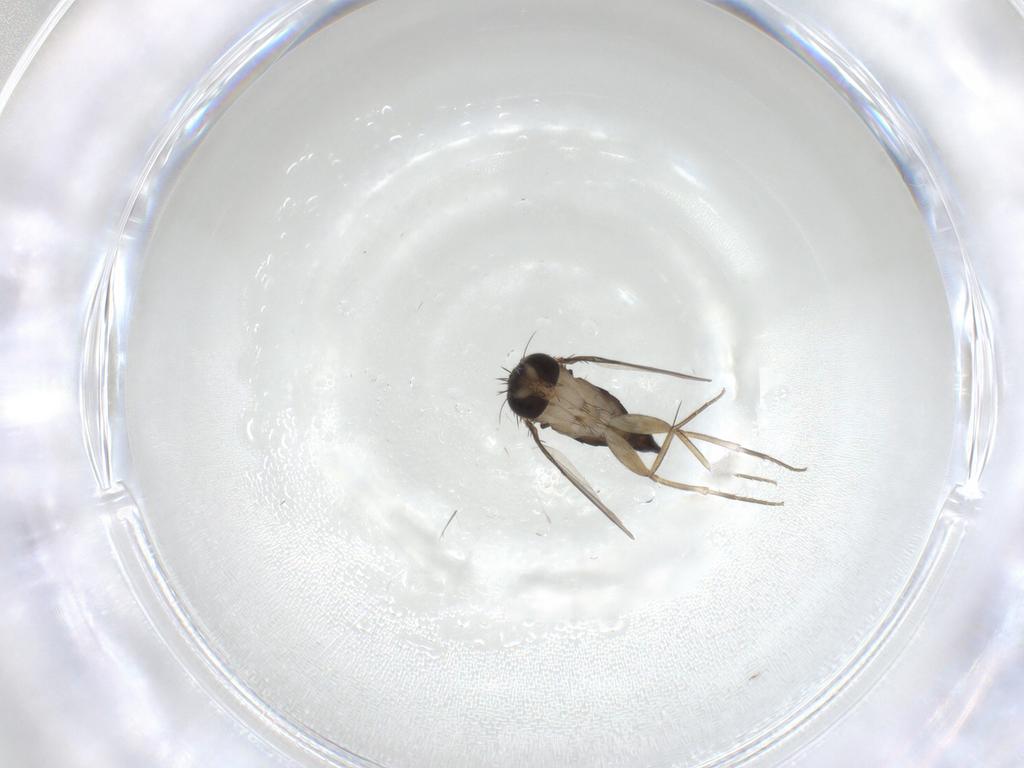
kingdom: Animalia
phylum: Arthropoda
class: Insecta
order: Diptera
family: Phoridae
